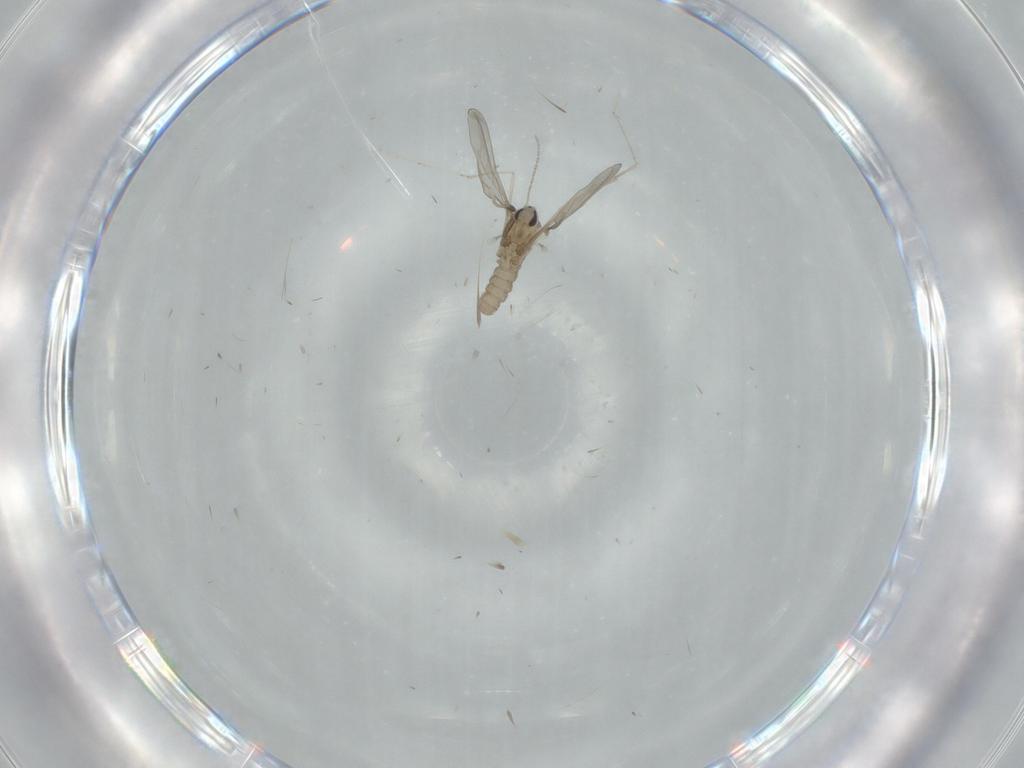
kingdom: Animalia
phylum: Arthropoda
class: Insecta
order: Diptera
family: Cecidomyiidae
